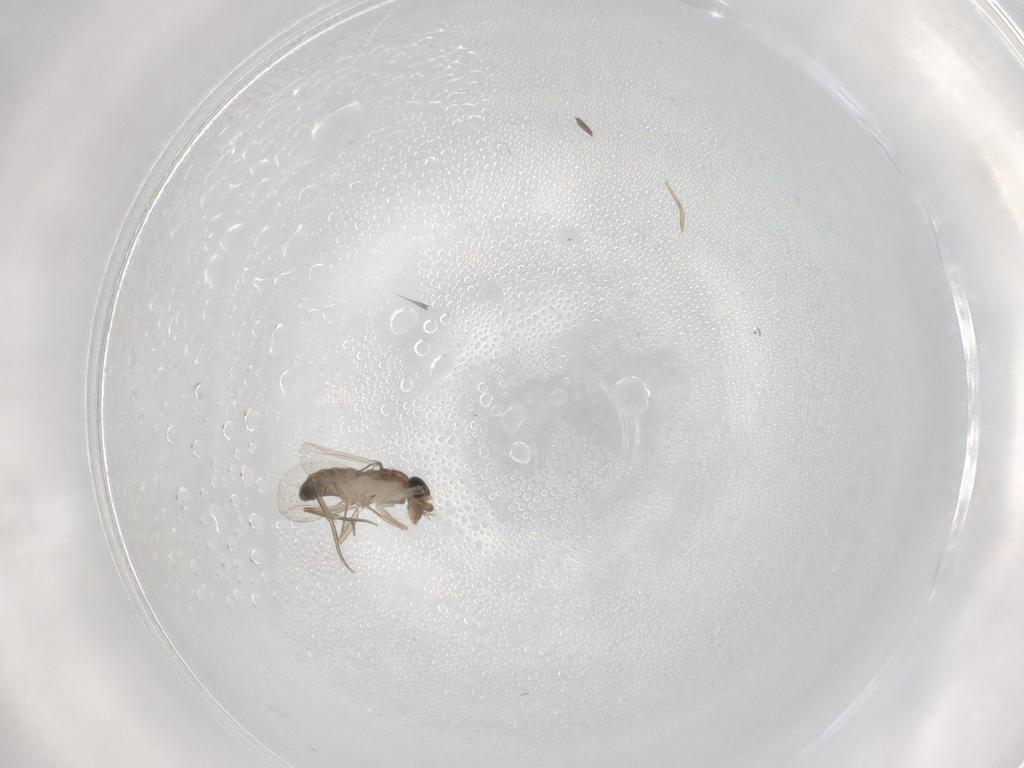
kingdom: Animalia
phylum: Arthropoda
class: Insecta
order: Diptera
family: Phoridae
